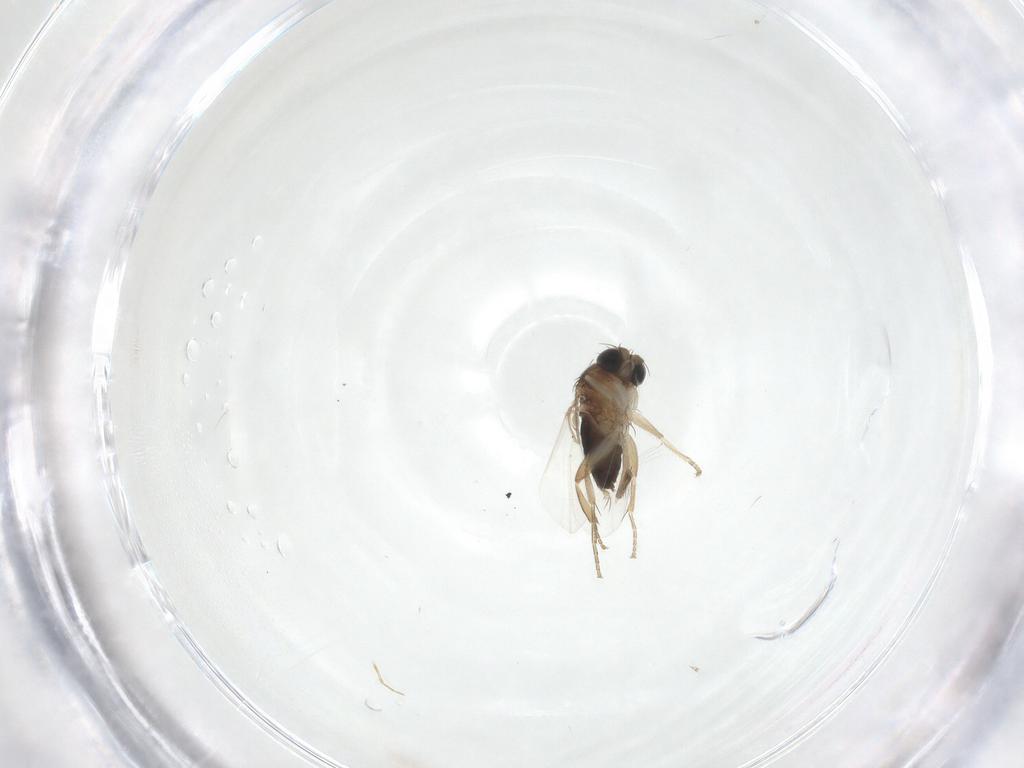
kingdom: Animalia
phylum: Arthropoda
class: Insecta
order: Diptera
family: Phoridae
